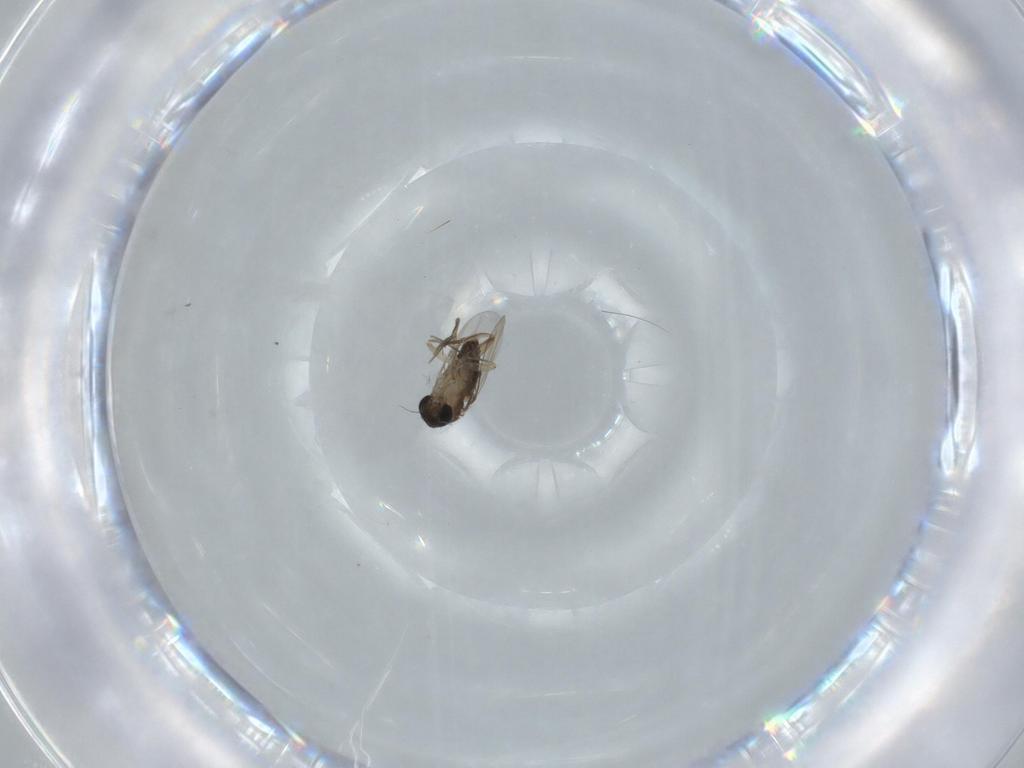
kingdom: Animalia
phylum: Arthropoda
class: Insecta
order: Diptera
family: Phoridae
